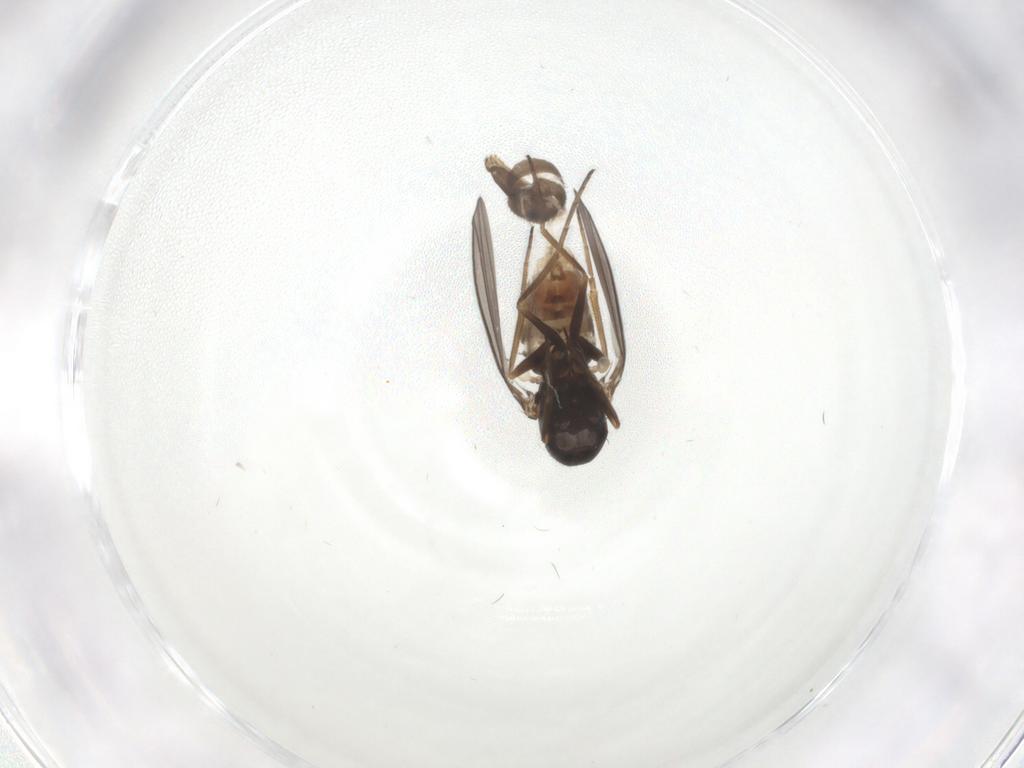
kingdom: Animalia
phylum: Arthropoda
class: Insecta
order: Diptera
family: Dolichopodidae
